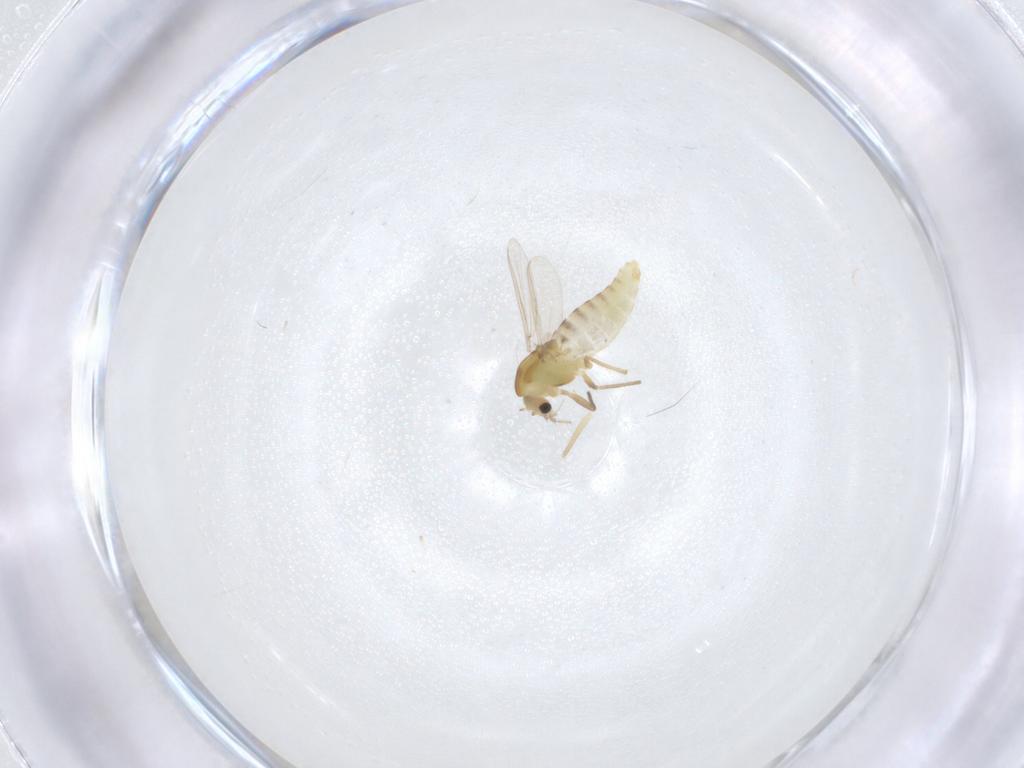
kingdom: Animalia
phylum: Arthropoda
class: Insecta
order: Diptera
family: Chironomidae
